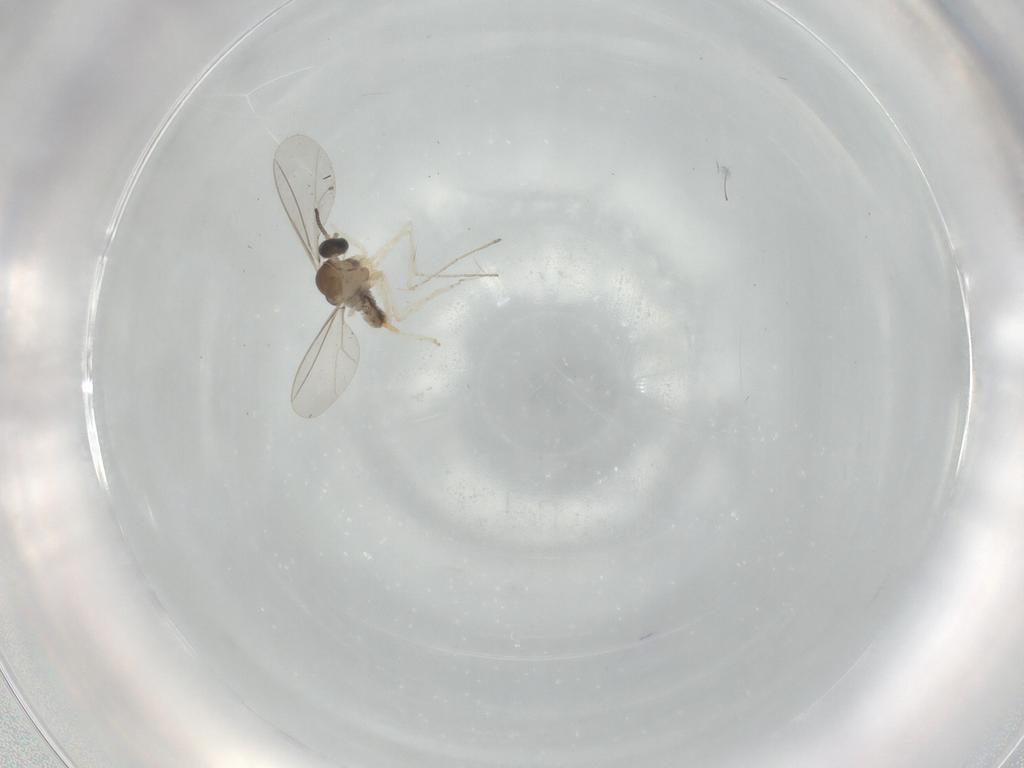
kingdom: Animalia
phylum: Arthropoda
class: Insecta
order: Diptera
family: Cecidomyiidae
